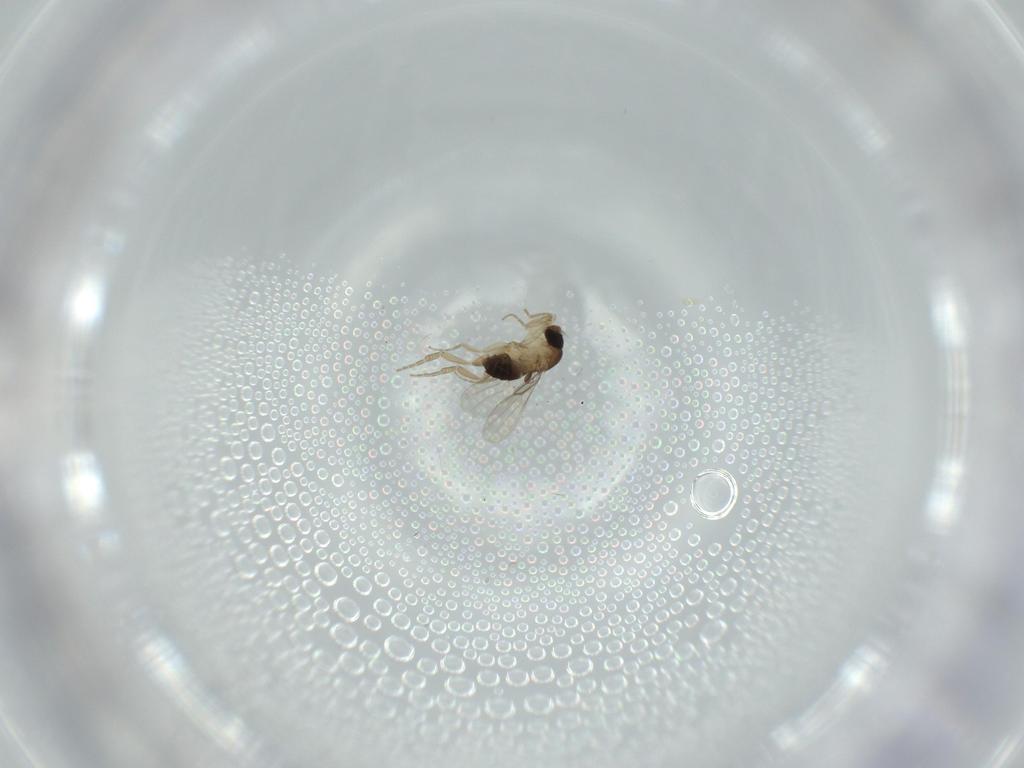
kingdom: Animalia
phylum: Arthropoda
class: Insecta
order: Diptera
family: Phoridae
